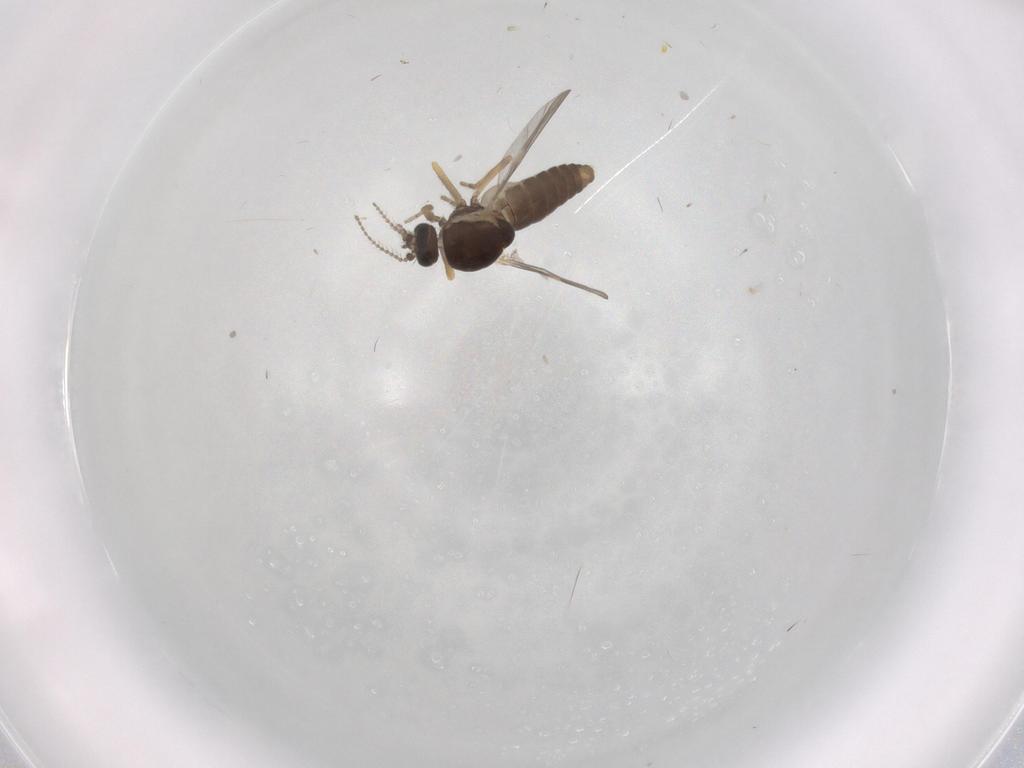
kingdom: Animalia
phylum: Arthropoda
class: Insecta
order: Diptera
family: Ceratopogonidae
